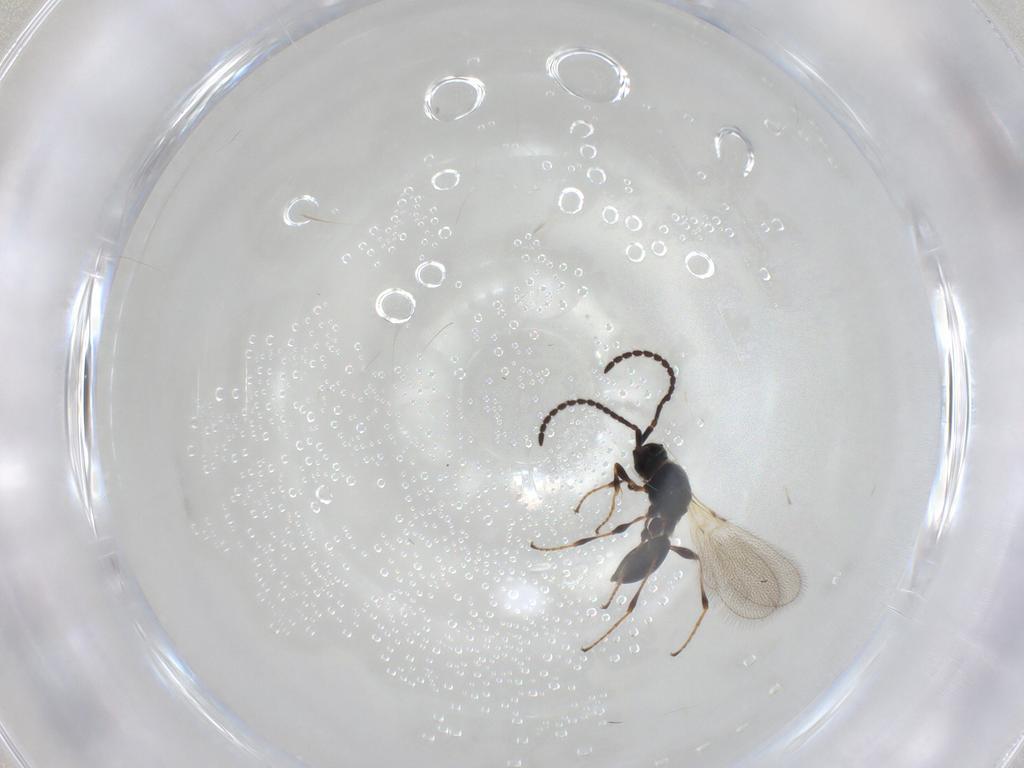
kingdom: Animalia
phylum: Arthropoda
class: Insecta
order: Hymenoptera
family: Diapriidae
